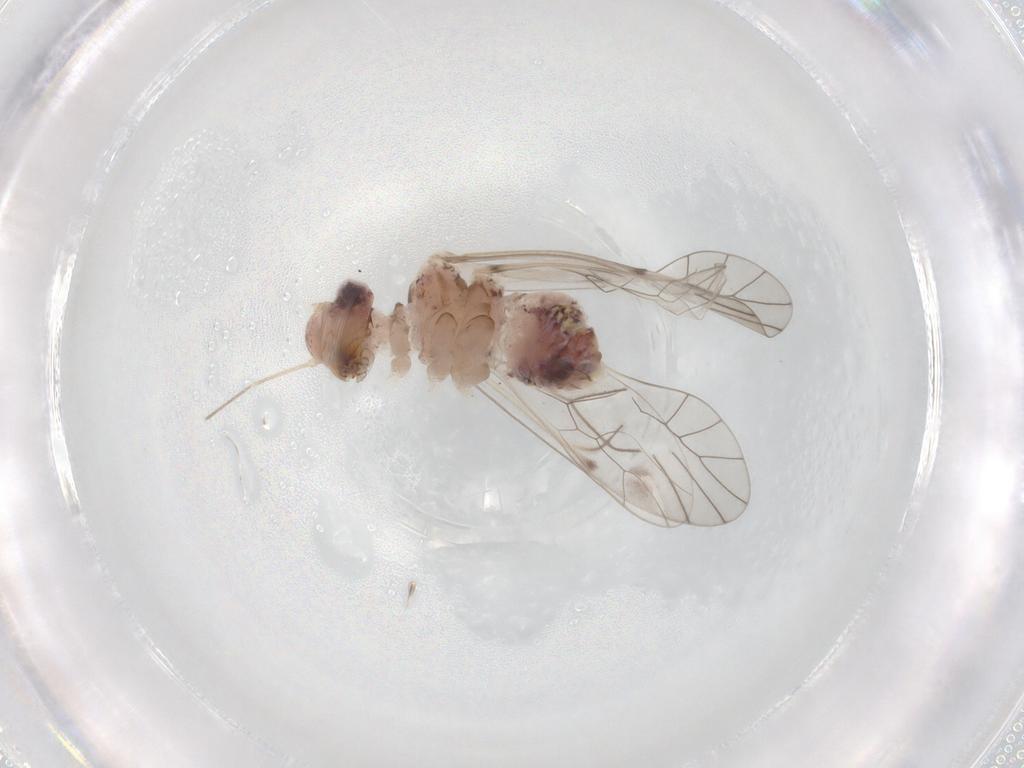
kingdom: Animalia
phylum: Arthropoda
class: Insecta
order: Psocodea
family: Psocidae
